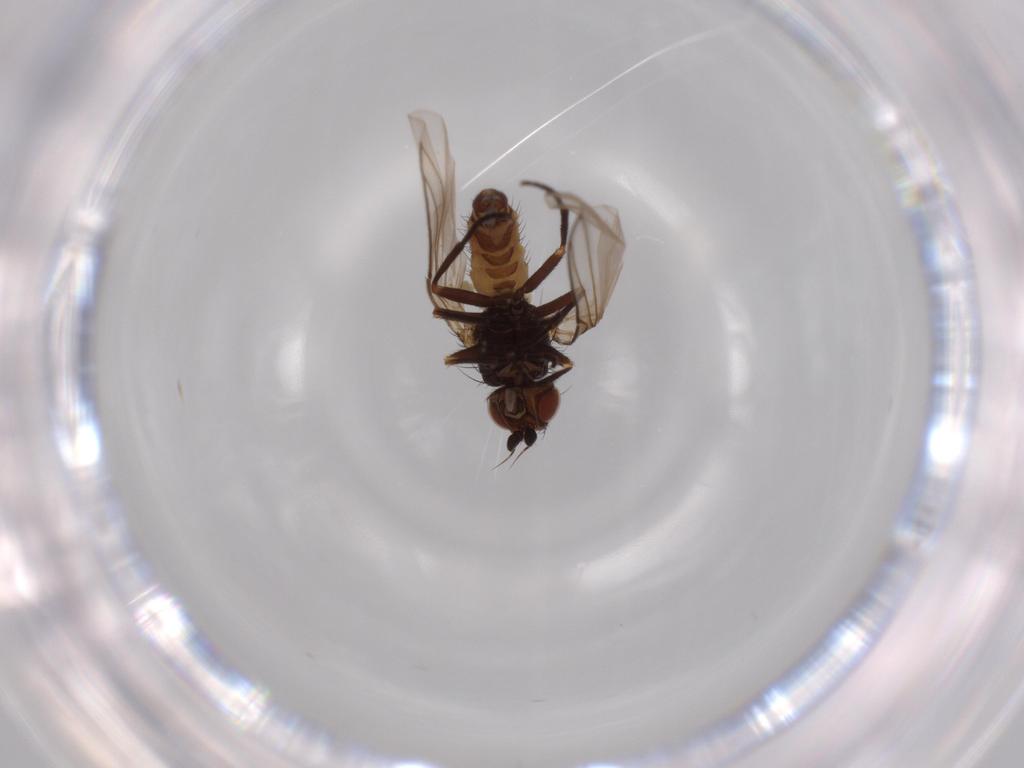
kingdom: Animalia
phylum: Arthropoda
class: Insecta
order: Diptera
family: Agromyzidae
